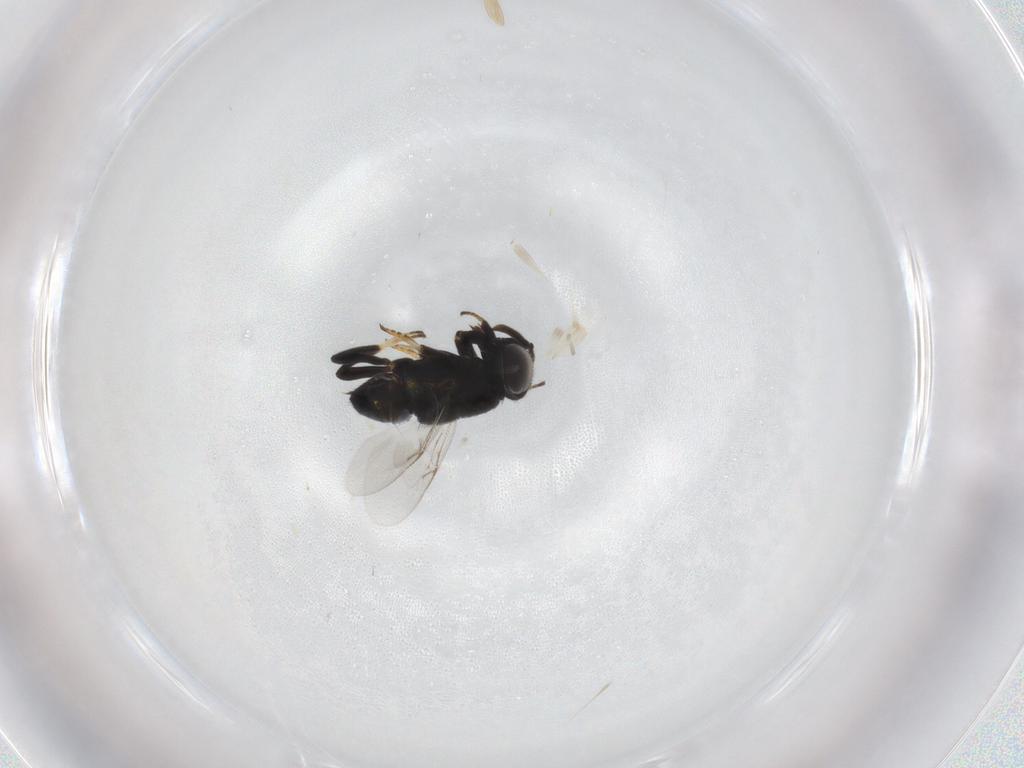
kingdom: Animalia
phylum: Arthropoda
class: Insecta
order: Hymenoptera
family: Encyrtidae
